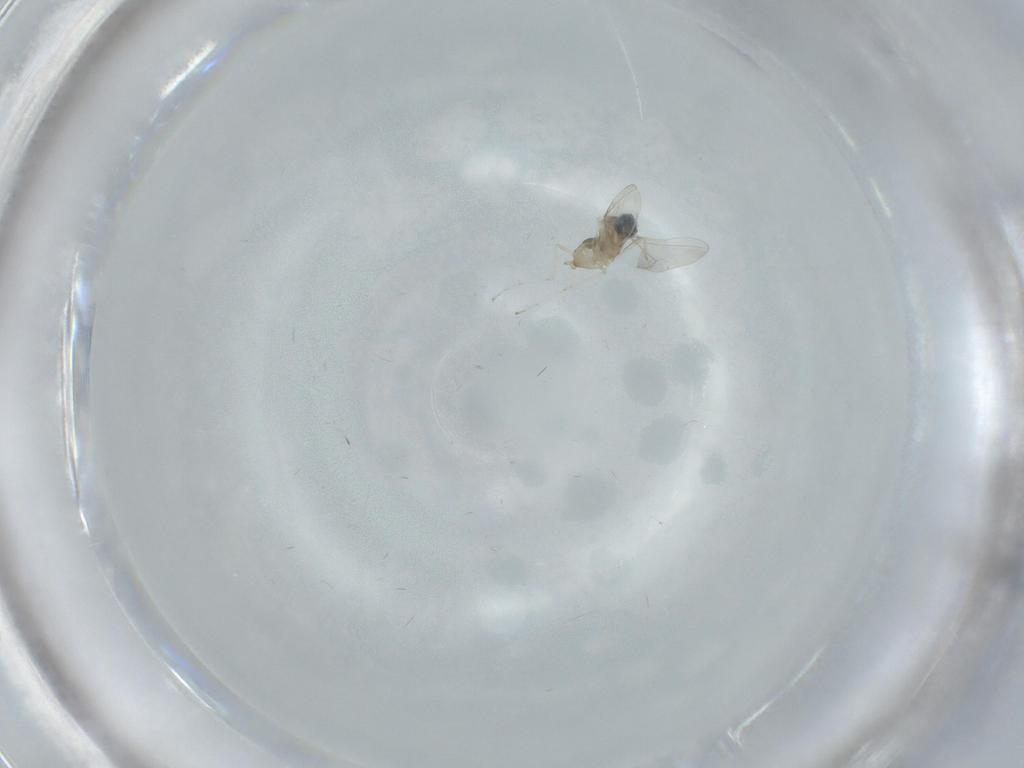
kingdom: Animalia
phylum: Arthropoda
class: Insecta
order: Diptera
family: Cecidomyiidae
